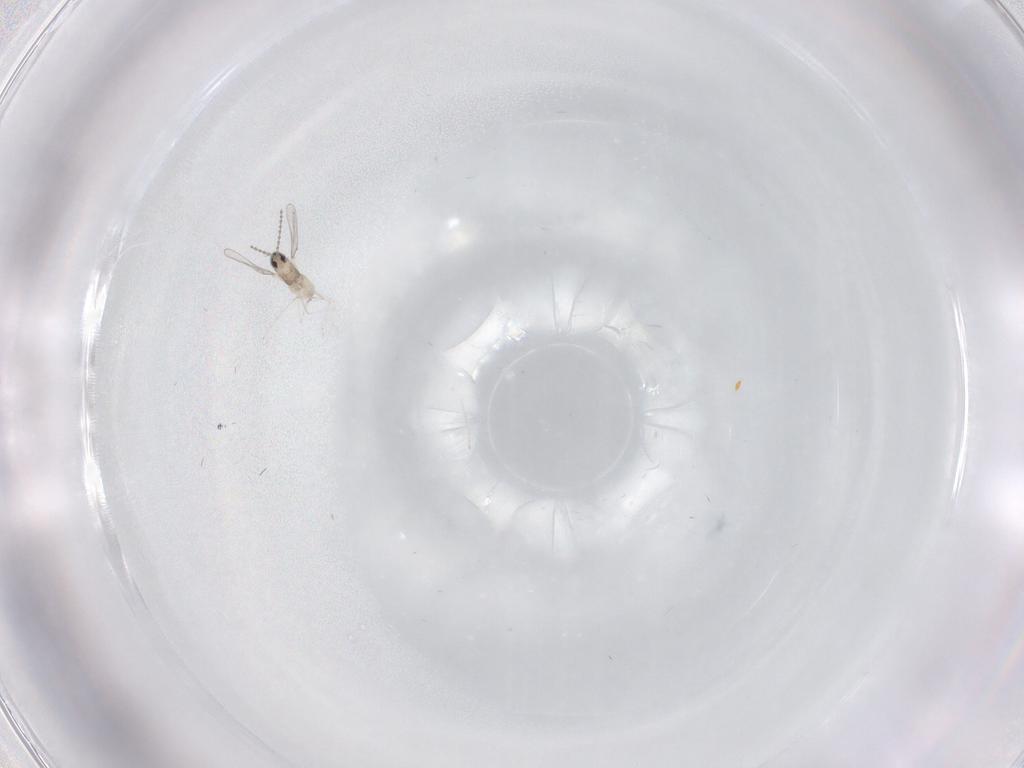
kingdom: Animalia
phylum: Arthropoda
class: Insecta
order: Diptera
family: Cecidomyiidae
